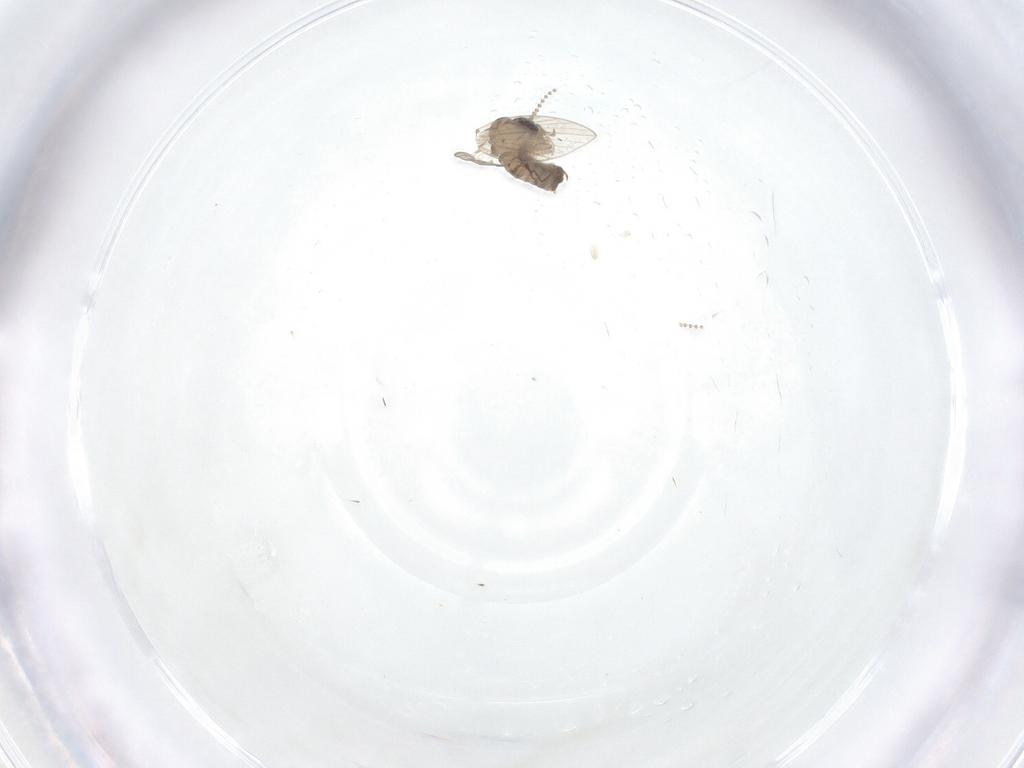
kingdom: Animalia
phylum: Arthropoda
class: Insecta
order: Diptera
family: Psychodidae
